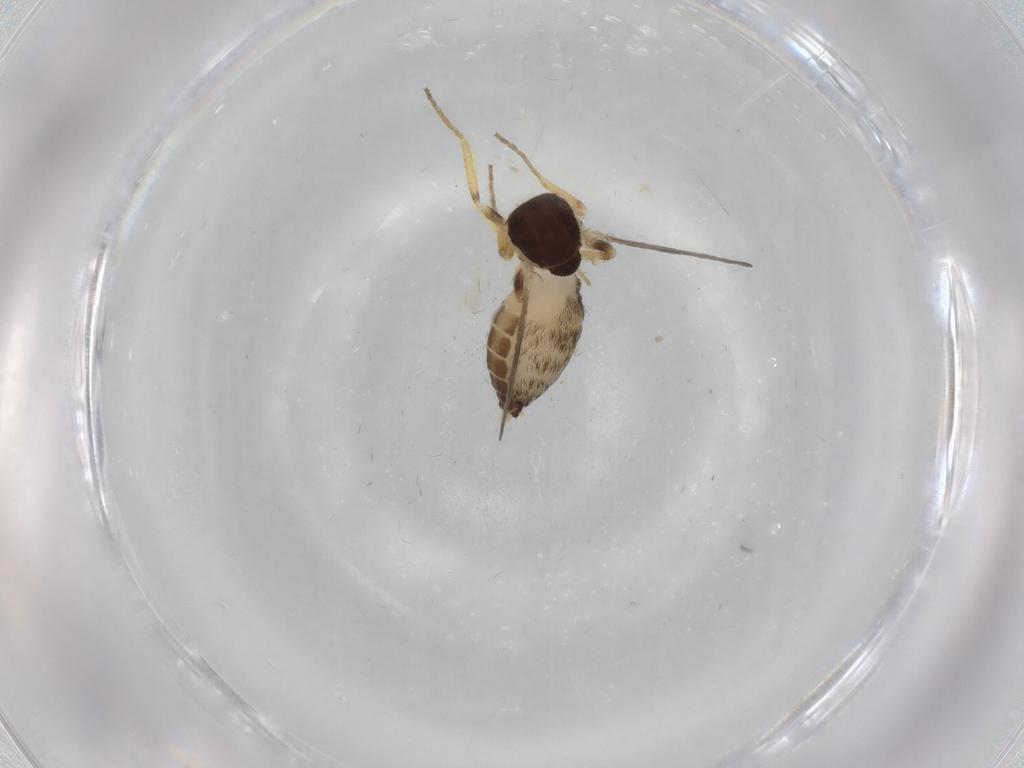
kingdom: Animalia
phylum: Arthropoda
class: Insecta
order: Diptera
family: Ceratopogonidae
